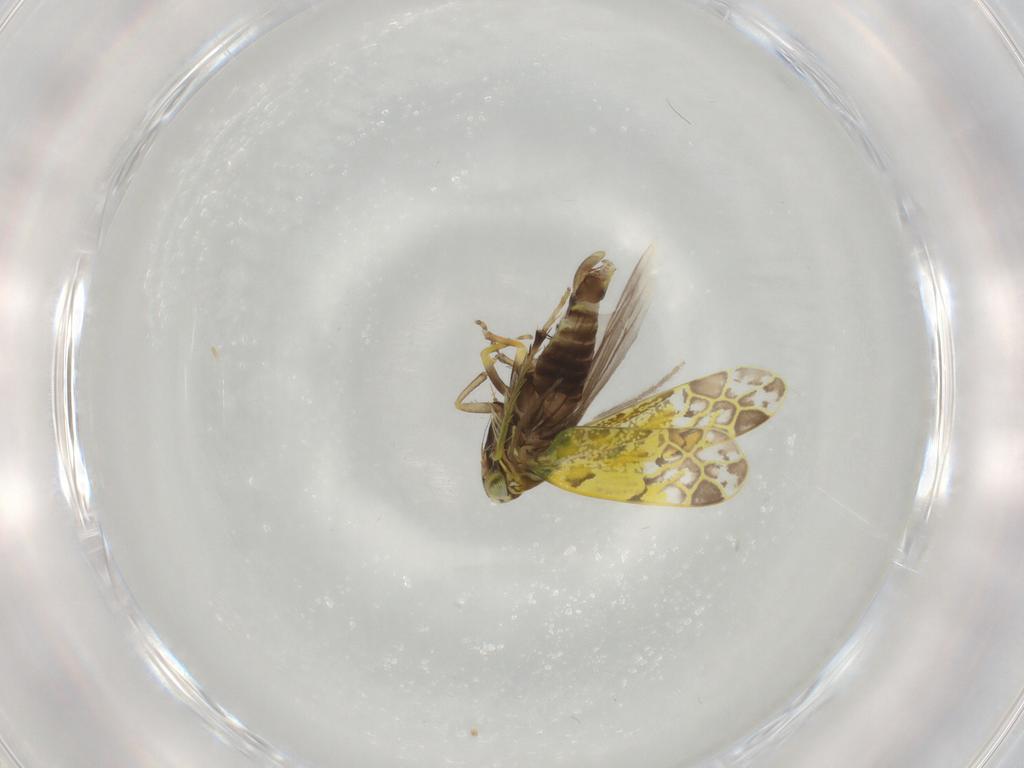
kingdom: Animalia
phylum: Arthropoda
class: Insecta
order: Hemiptera
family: Cicadellidae
